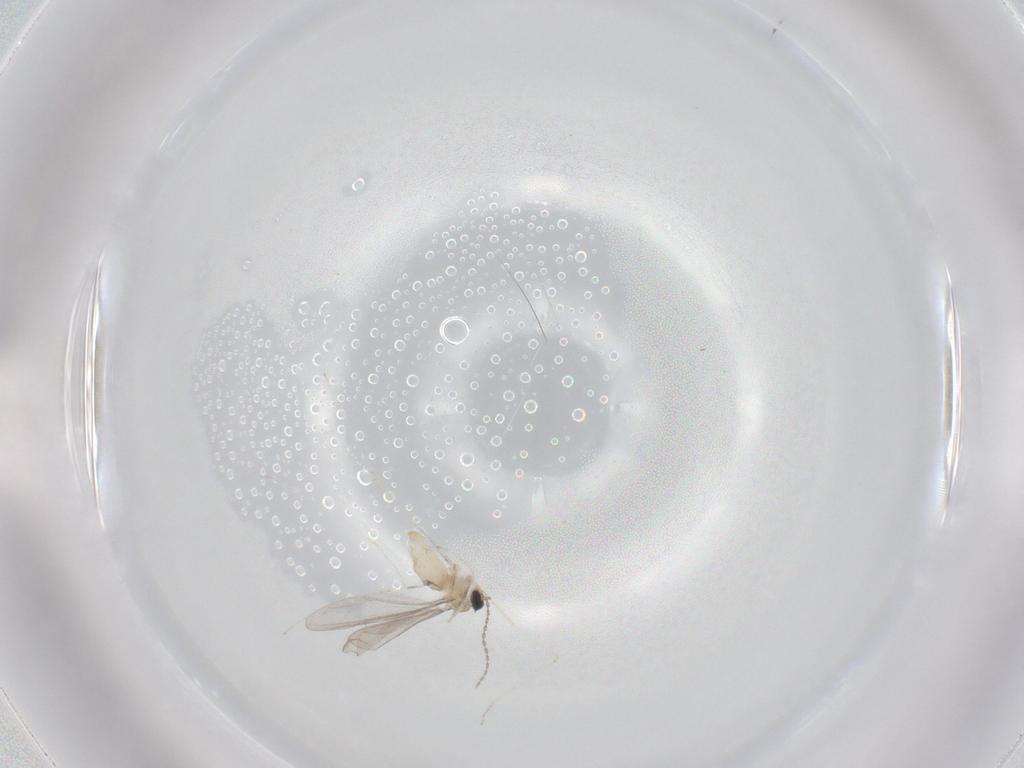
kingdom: Animalia
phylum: Arthropoda
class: Insecta
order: Diptera
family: Cecidomyiidae
